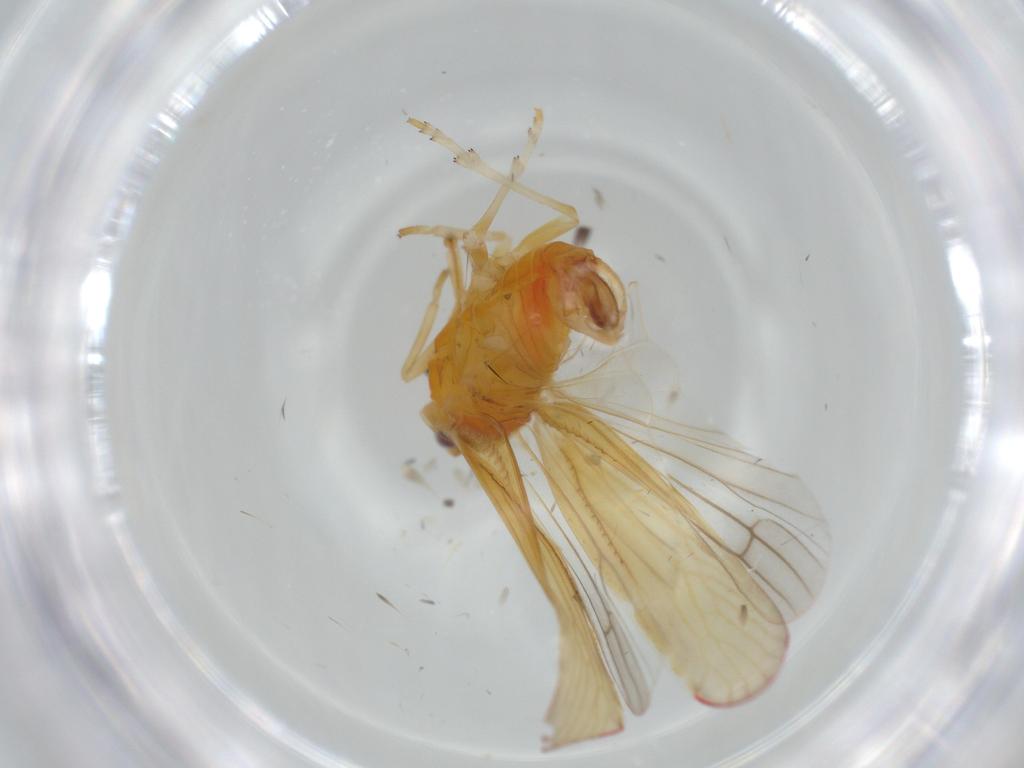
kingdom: Animalia
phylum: Arthropoda
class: Insecta
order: Hemiptera
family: Derbidae
